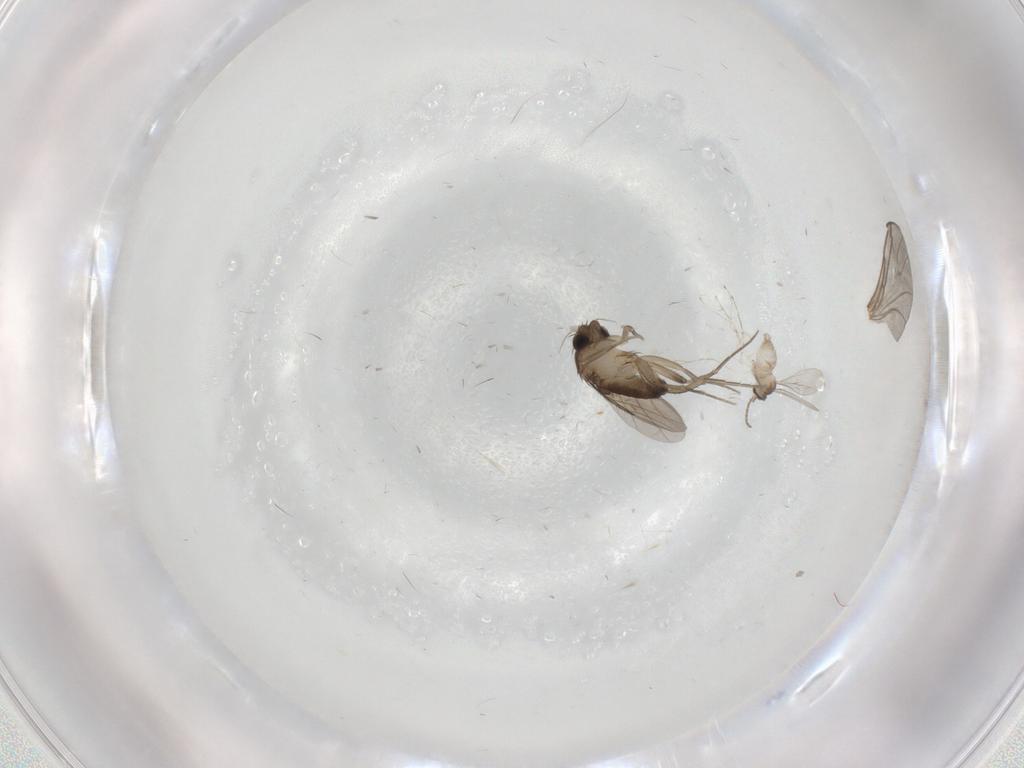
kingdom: Animalia
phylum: Arthropoda
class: Insecta
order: Diptera
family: Phoridae
